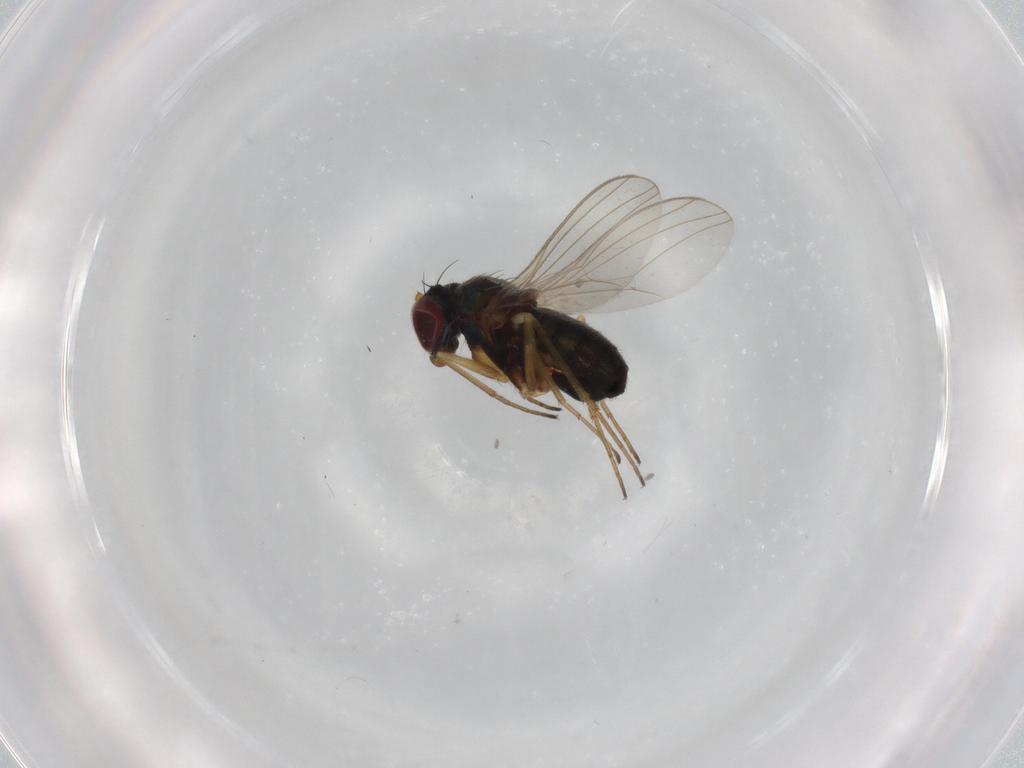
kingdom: Animalia
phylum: Arthropoda
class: Insecta
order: Diptera
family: Dolichopodidae
